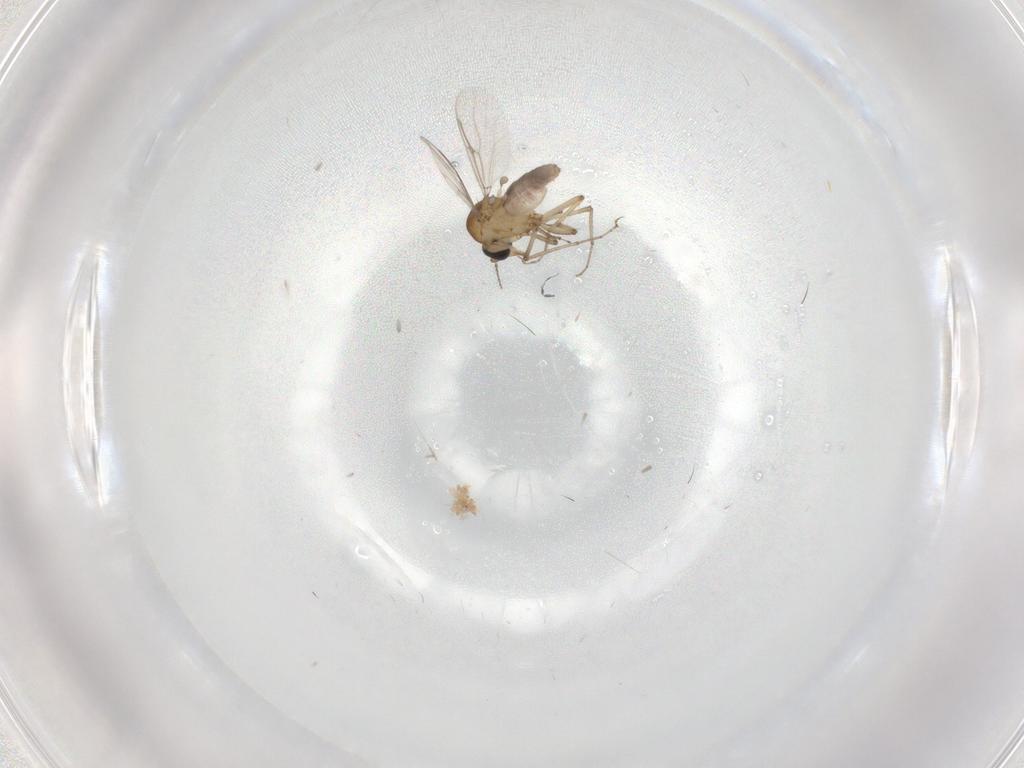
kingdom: Animalia
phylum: Arthropoda
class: Insecta
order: Diptera
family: Ceratopogonidae
